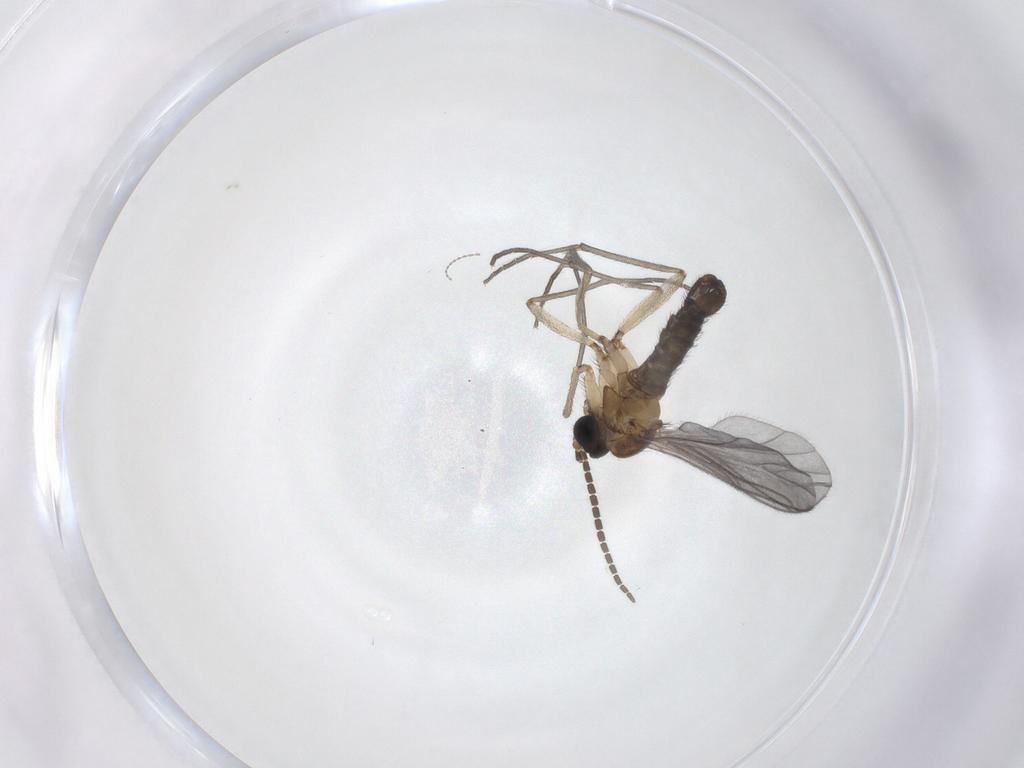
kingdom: Animalia
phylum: Arthropoda
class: Insecta
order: Diptera
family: Sciaridae
